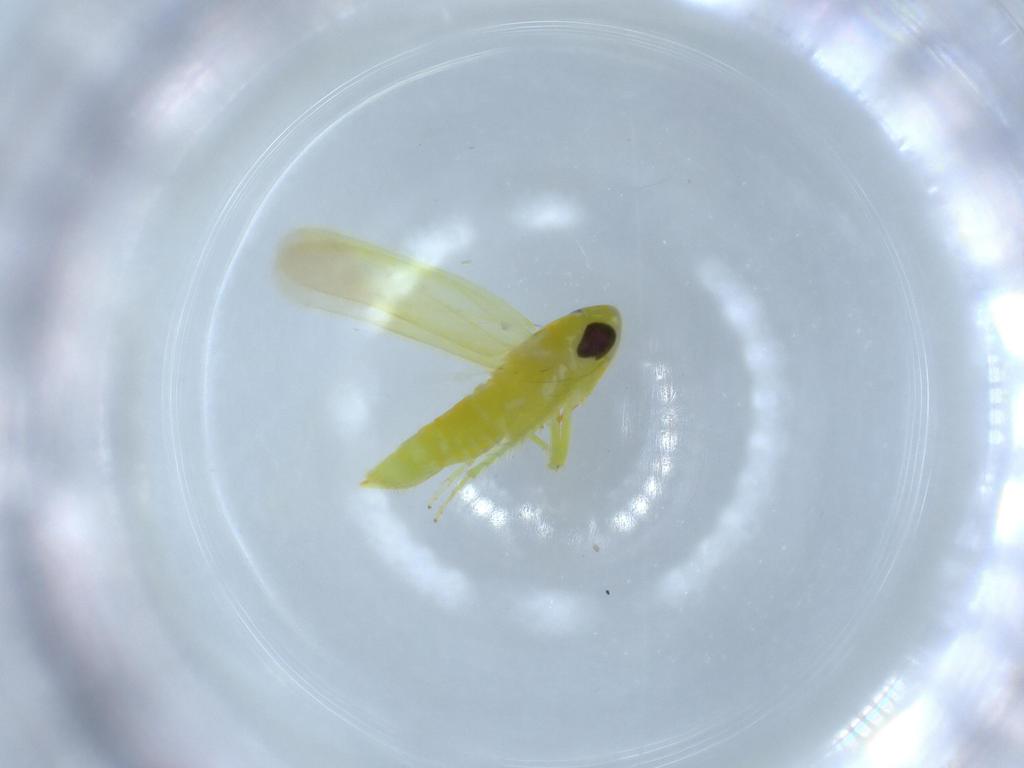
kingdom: Animalia
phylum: Arthropoda
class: Insecta
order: Hemiptera
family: Cicadellidae
